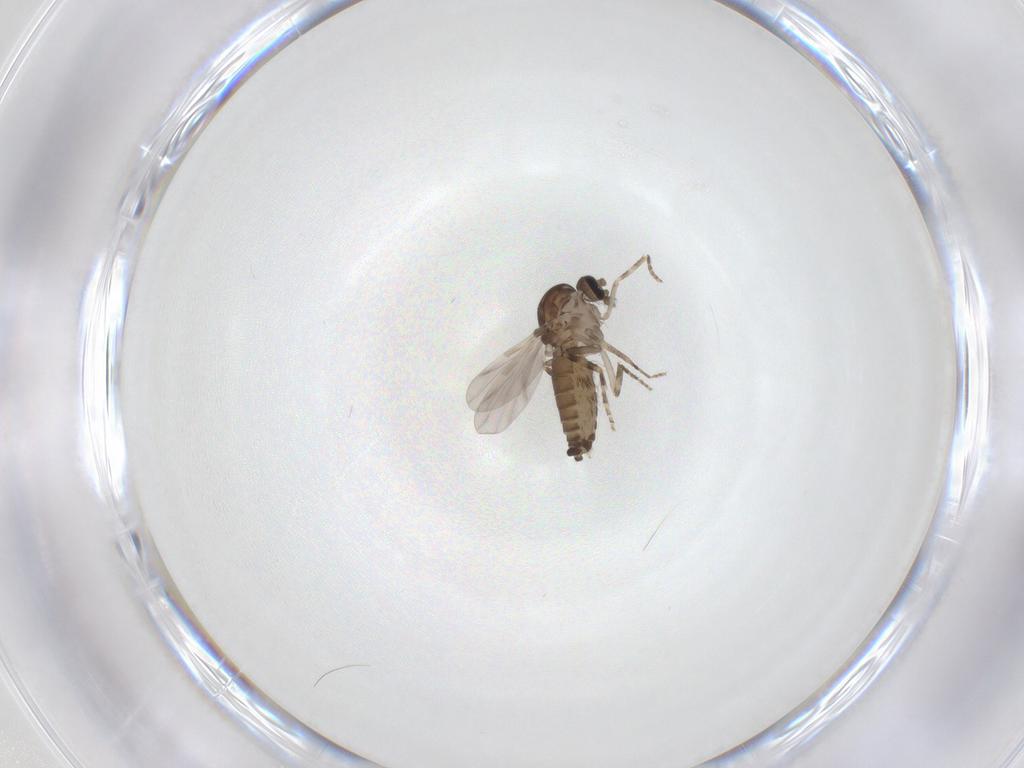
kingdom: Animalia
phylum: Arthropoda
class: Insecta
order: Diptera
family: Ceratopogonidae
